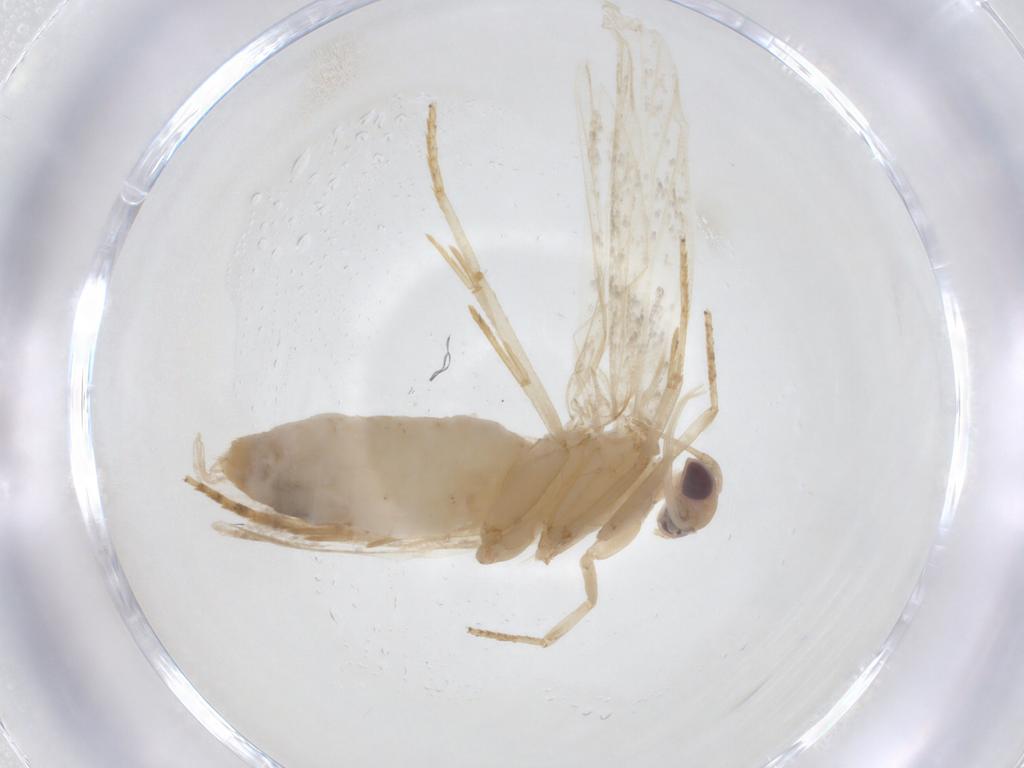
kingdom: Animalia
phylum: Arthropoda
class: Insecta
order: Lepidoptera
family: Depressariidae
